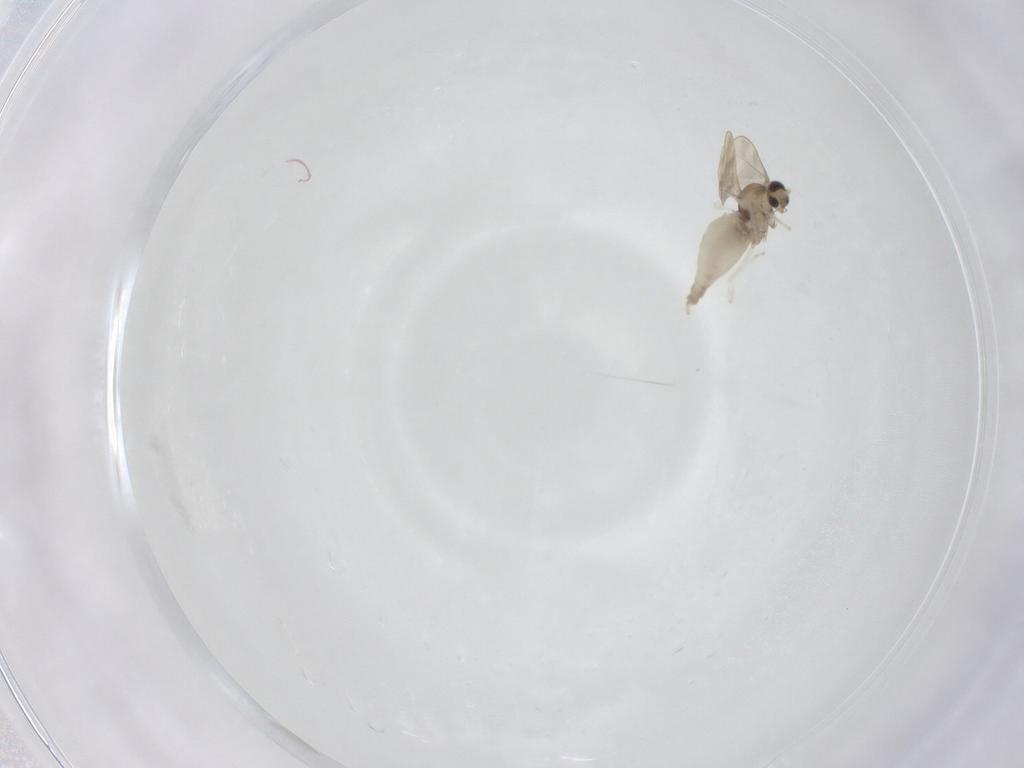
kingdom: Animalia
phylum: Arthropoda
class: Insecta
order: Diptera
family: Cecidomyiidae
